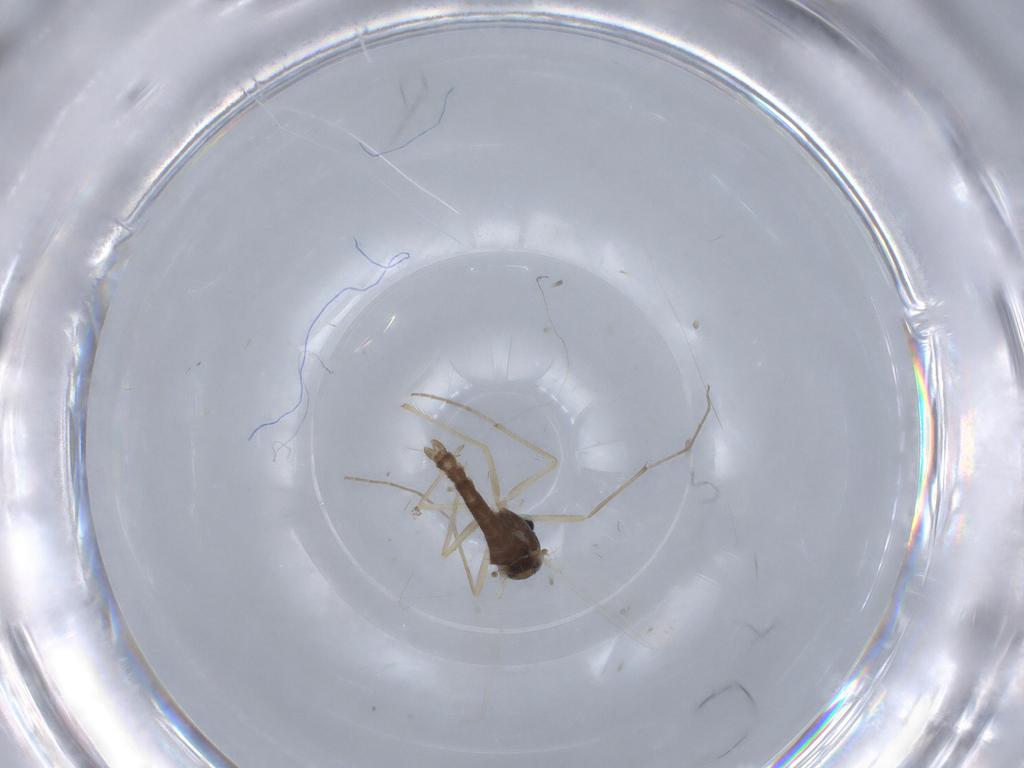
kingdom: Animalia
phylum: Arthropoda
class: Insecta
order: Diptera
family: Chironomidae
